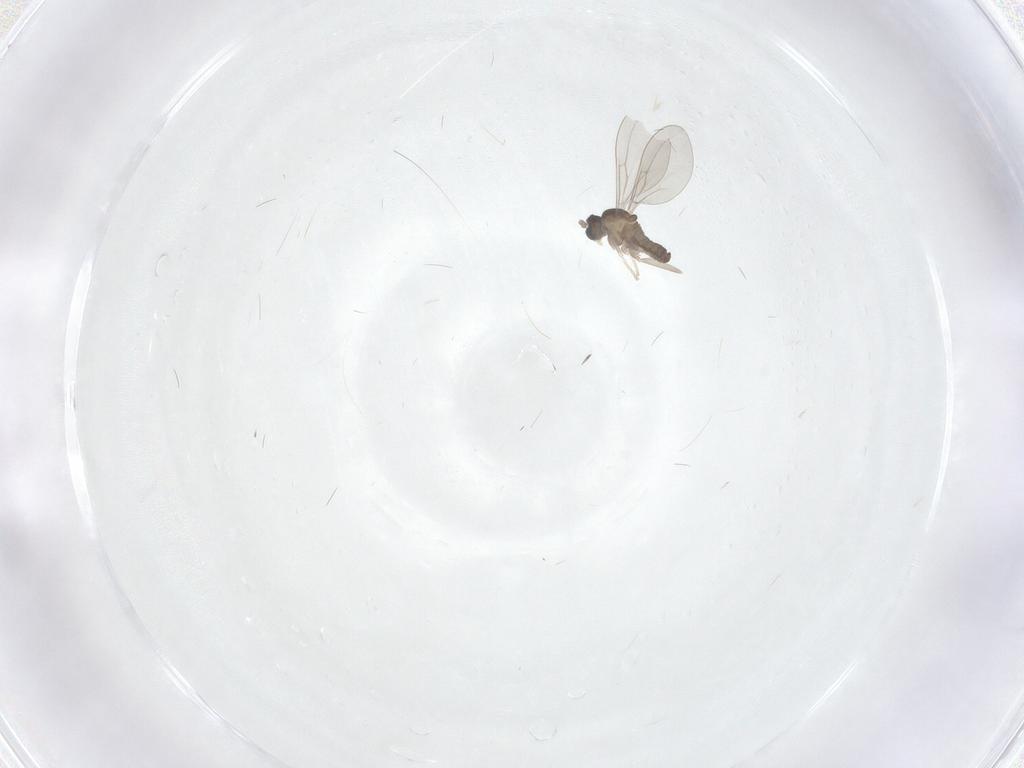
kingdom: Animalia
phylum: Arthropoda
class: Insecta
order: Diptera
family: Cecidomyiidae
